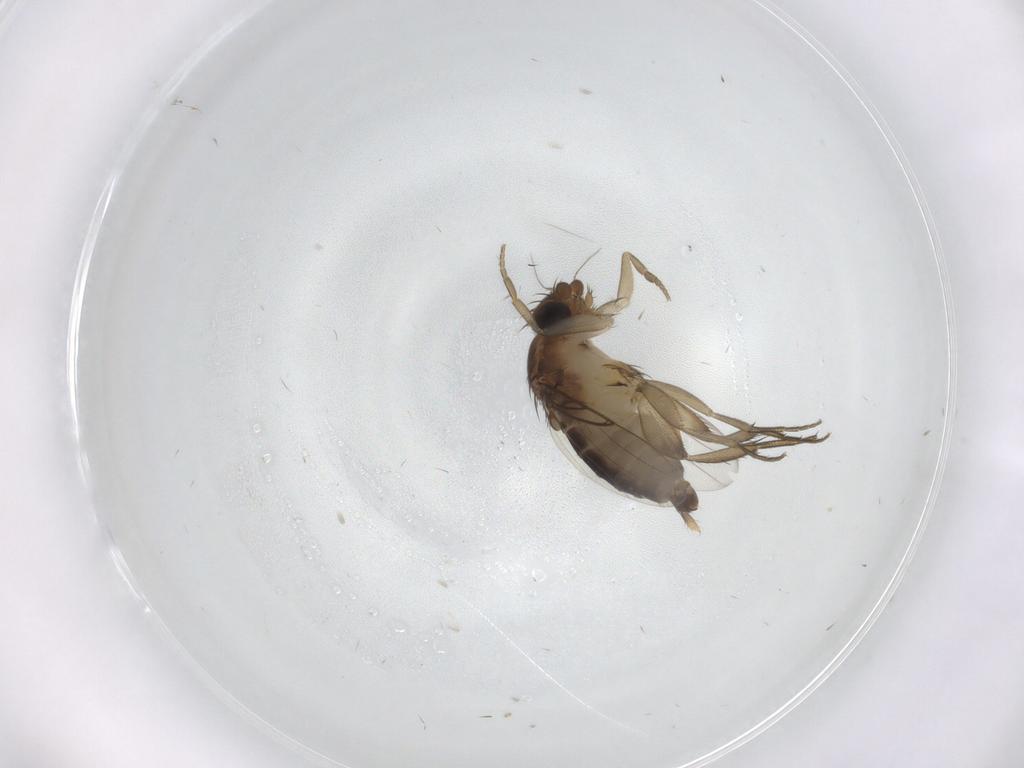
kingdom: Animalia
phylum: Arthropoda
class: Insecta
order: Diptera
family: Phoridae
